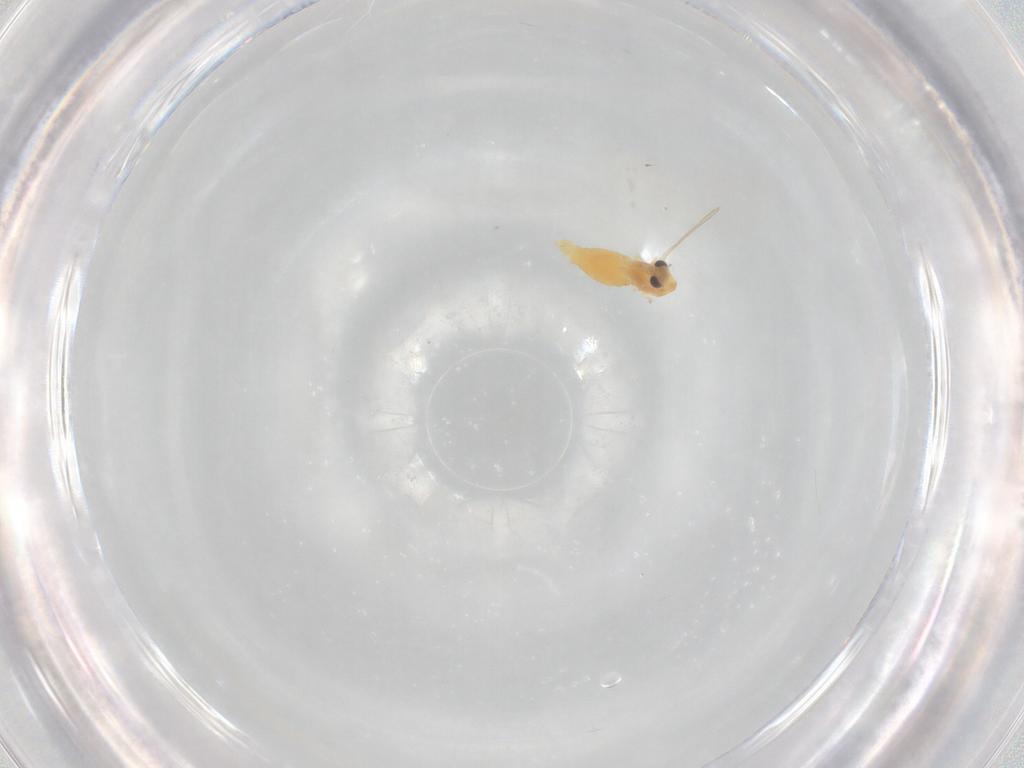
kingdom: Animalia
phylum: Arthropoda
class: Insecta
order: Diptera
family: Chironomidae
